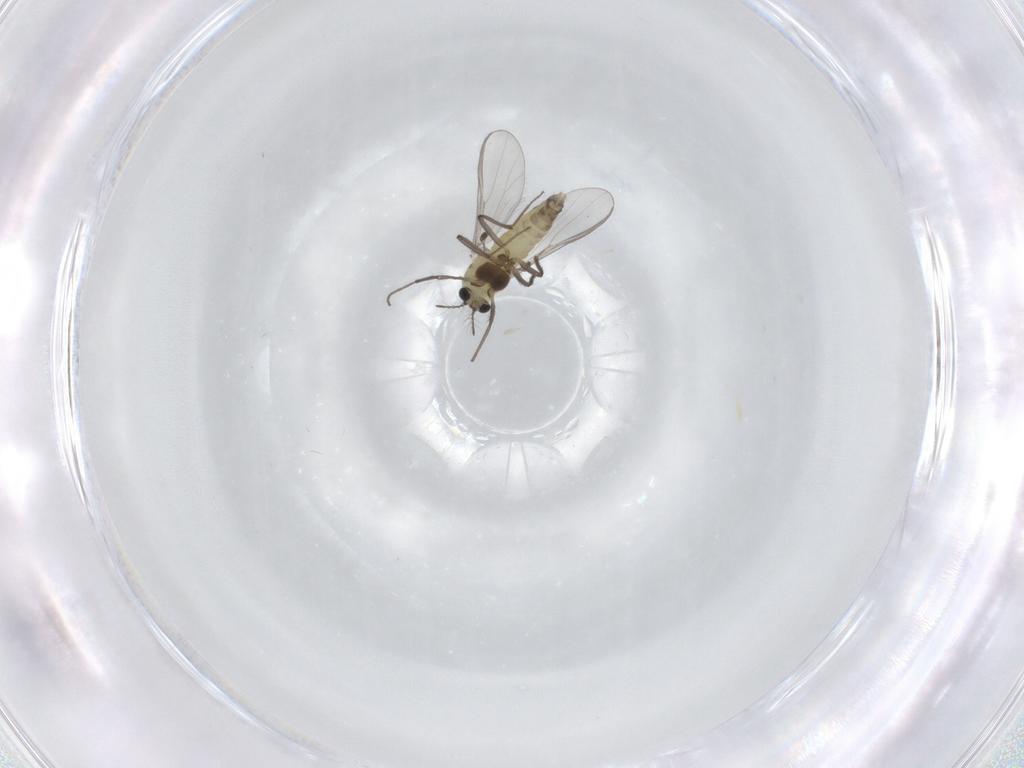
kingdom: Animalia
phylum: Arthropoda
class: Insecta
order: Diptera
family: Chironomidae
